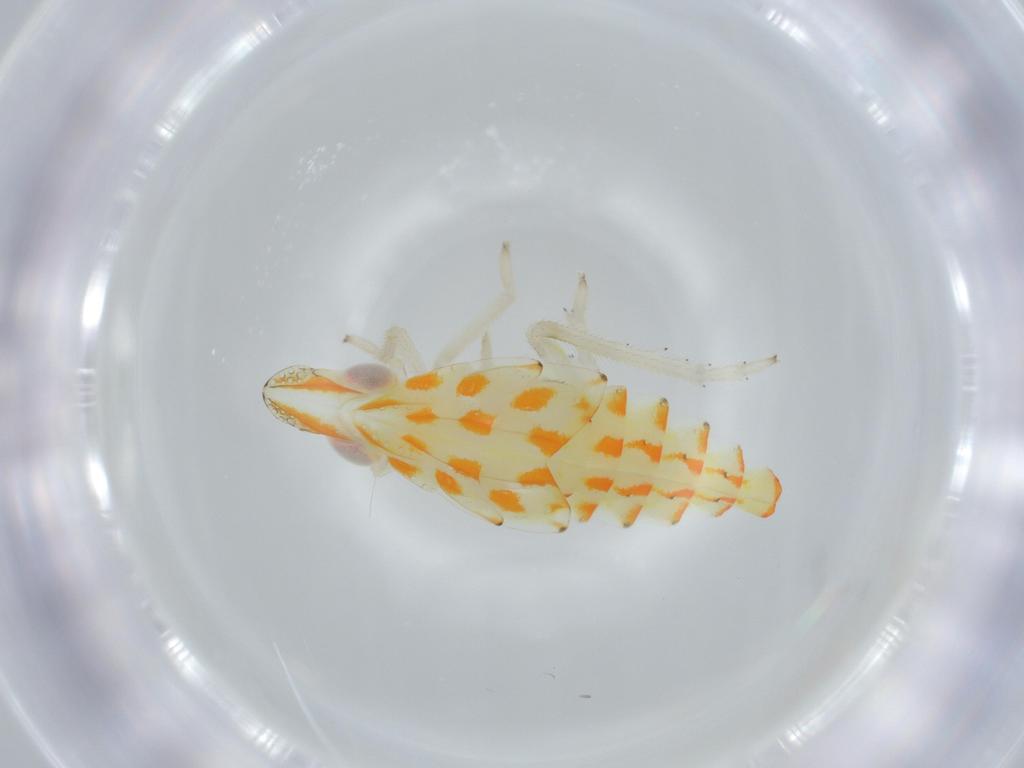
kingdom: Animalia
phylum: Arthropoda
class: Insecta
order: Hemiptera
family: Tropiduchidae
